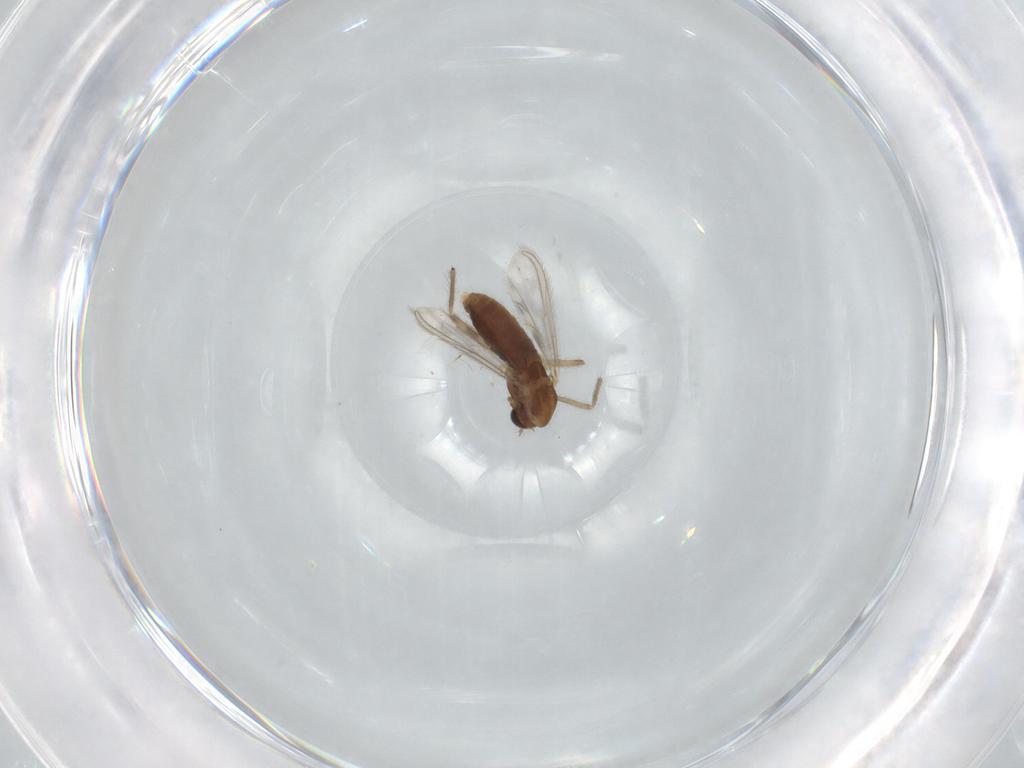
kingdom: Animalia
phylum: Arthropoda
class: Insecta
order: Diptera
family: Chironomidae
